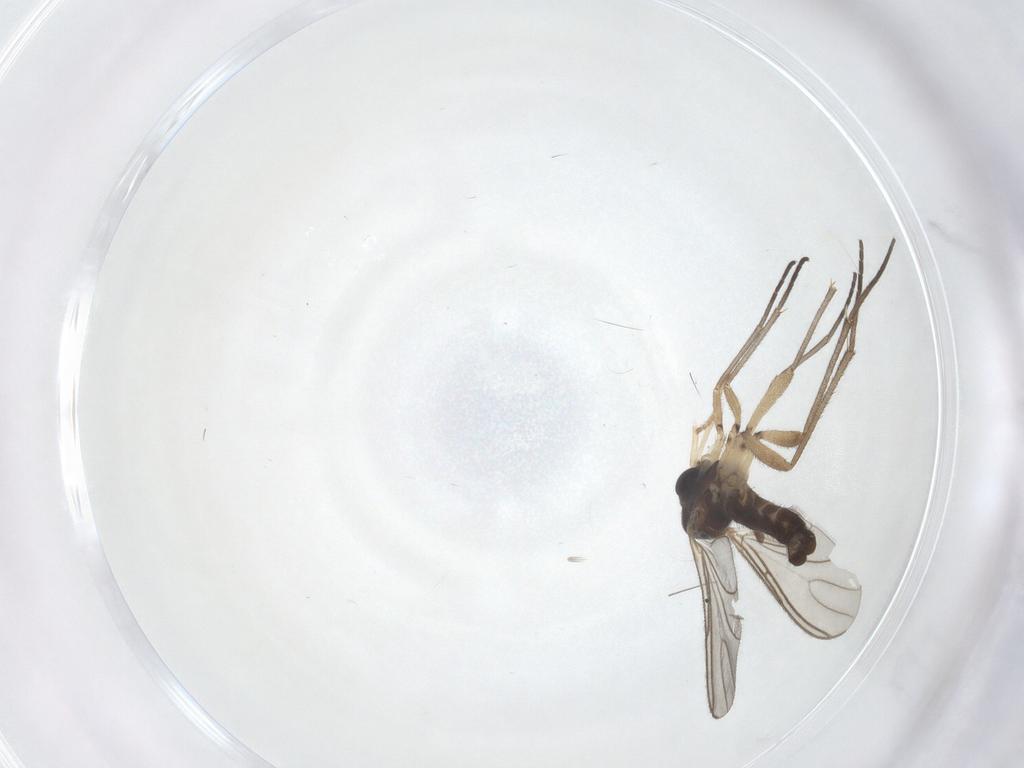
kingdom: Animalia
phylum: Arthropoda
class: Insecta
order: Diptera
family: Sciaridae
